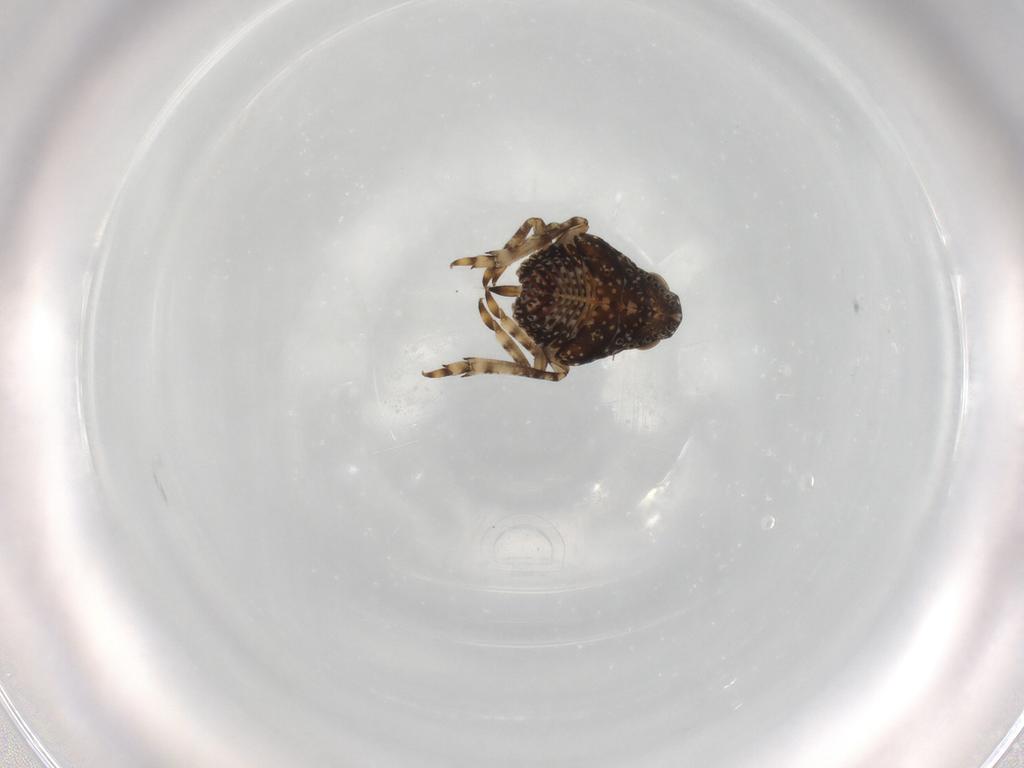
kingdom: Animalia
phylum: Arthropoda
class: Insecta
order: Hemiptera
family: Nogodinidae
